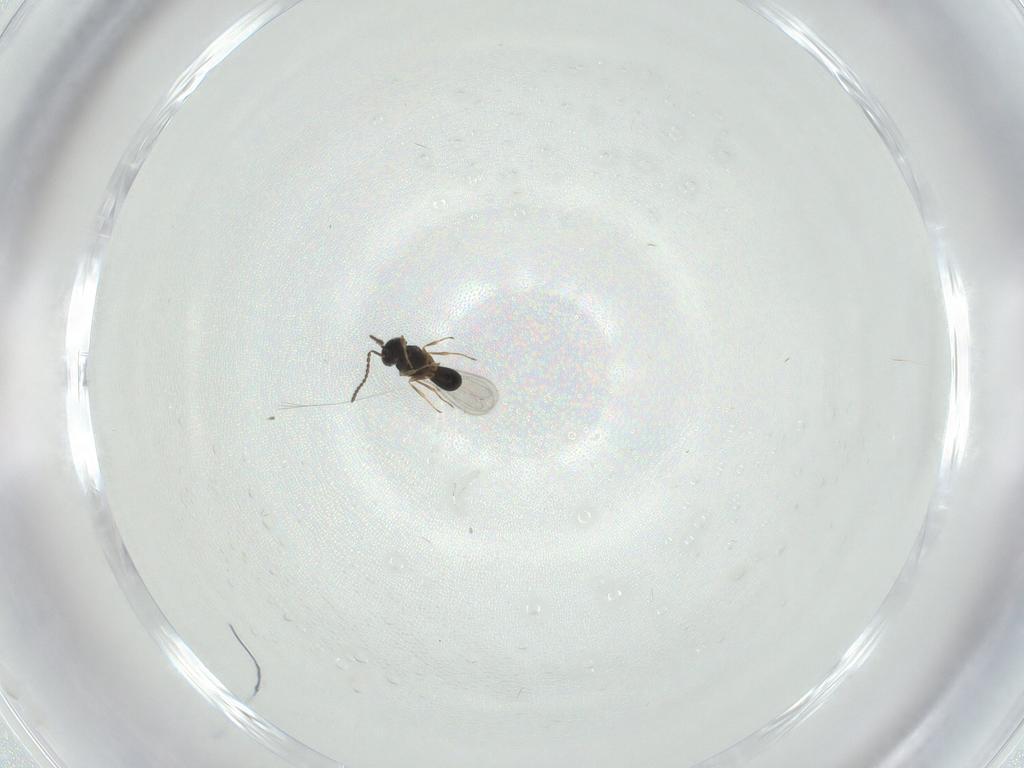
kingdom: Animalia
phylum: Arthropoda
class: Insecta
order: Hymenoptera
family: Scelionidae
